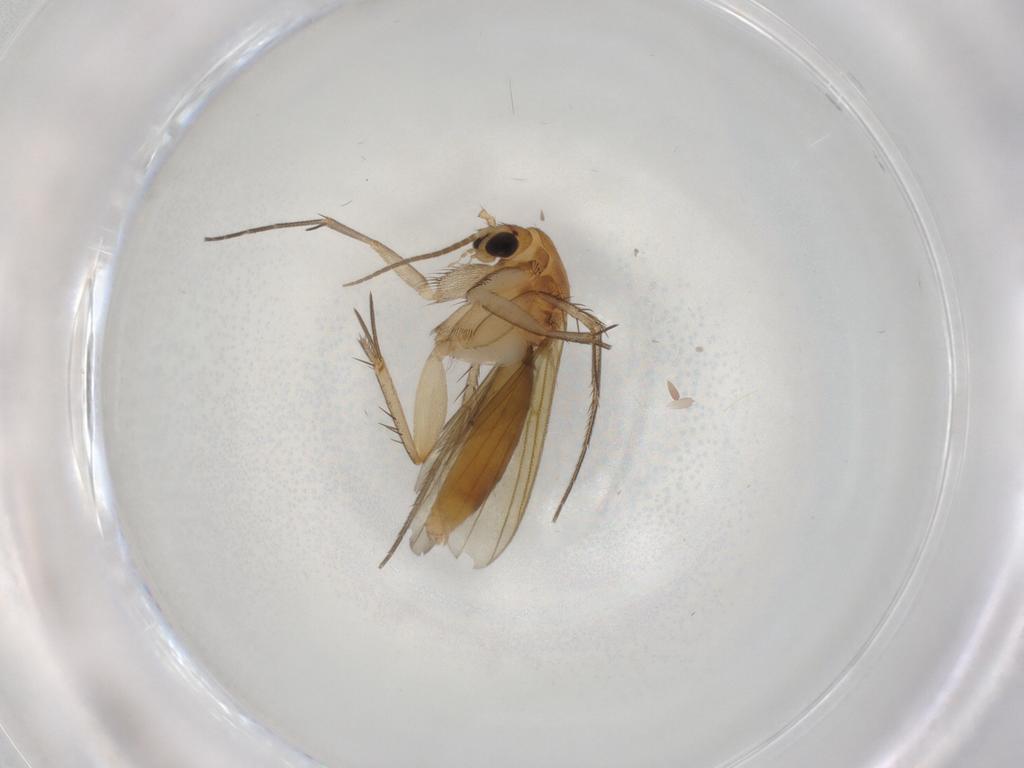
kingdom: Animalia
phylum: Arthropoda
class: Insecta
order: Diptera
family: Mycetophilidae
